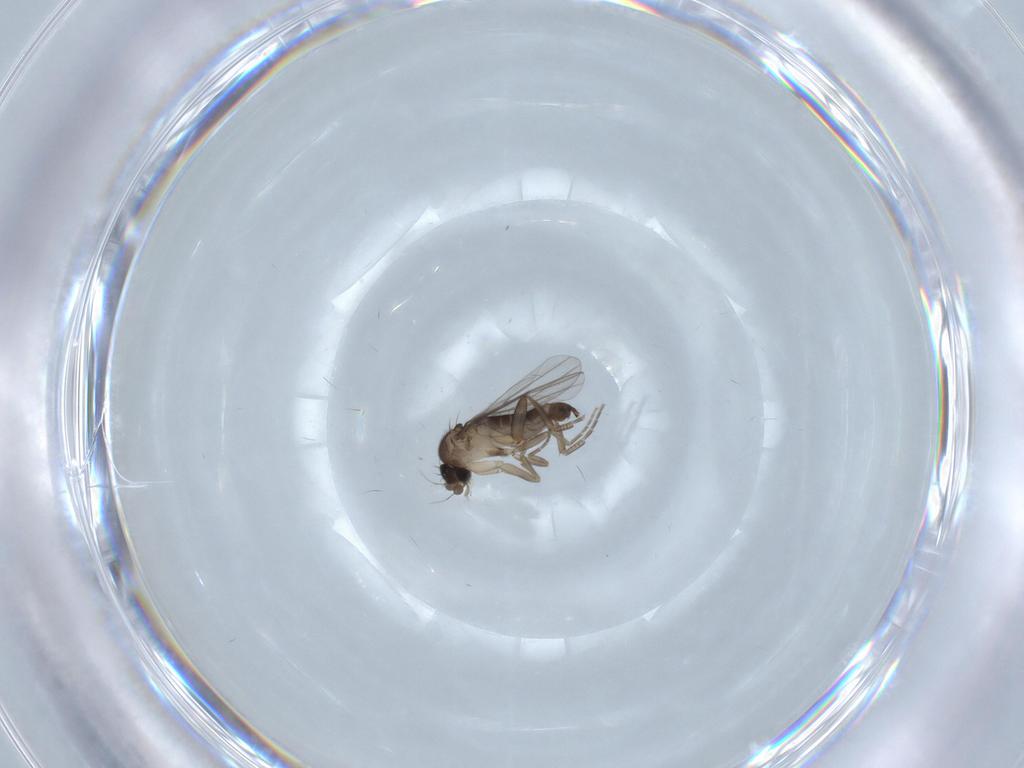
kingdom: Animalia
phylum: Arthropoda
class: Insecta
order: Diptera
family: Phoridae
